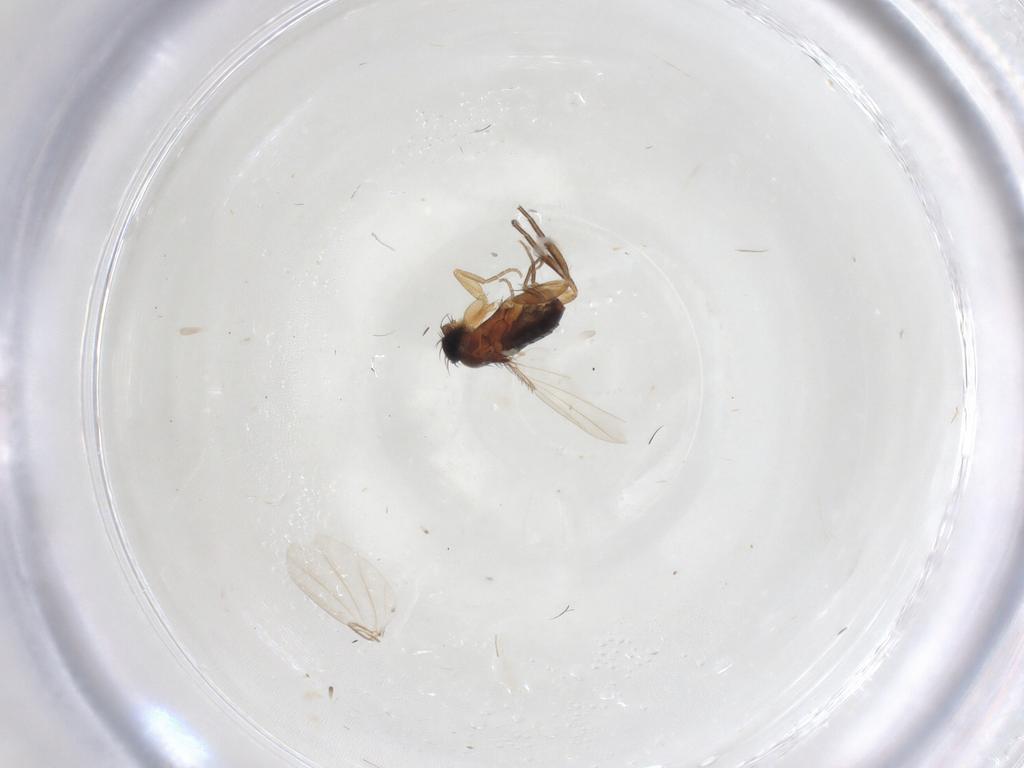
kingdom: Animalia
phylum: Arthropoda
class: Insecta
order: Diptera
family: Phoridae
